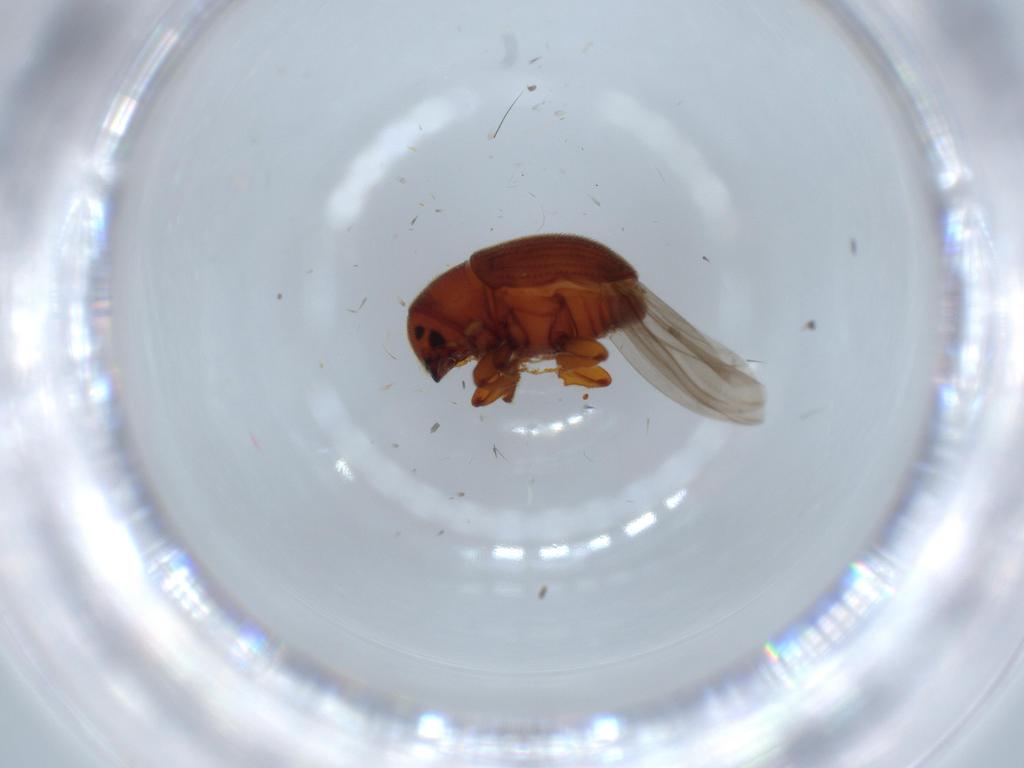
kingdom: Animalia
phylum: Arthropoda
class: Insecta
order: Coleoptera
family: Curculionidae
